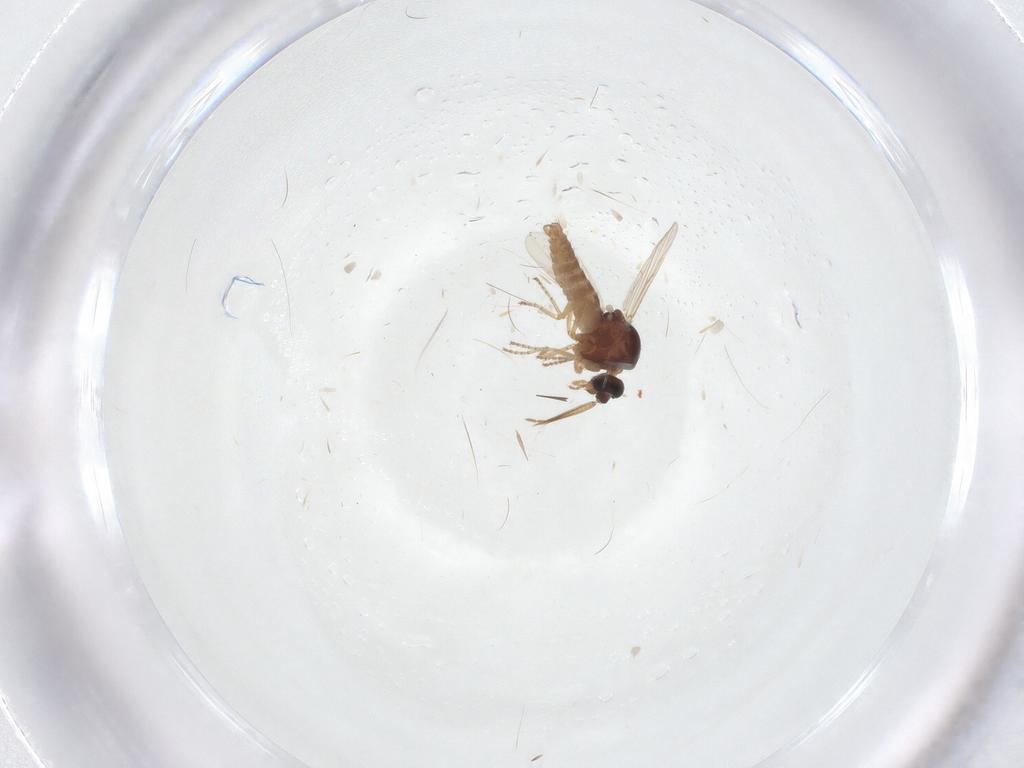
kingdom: Animalia
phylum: Arthropoda
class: Insecta
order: Diptera
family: Ceratopogonidae
